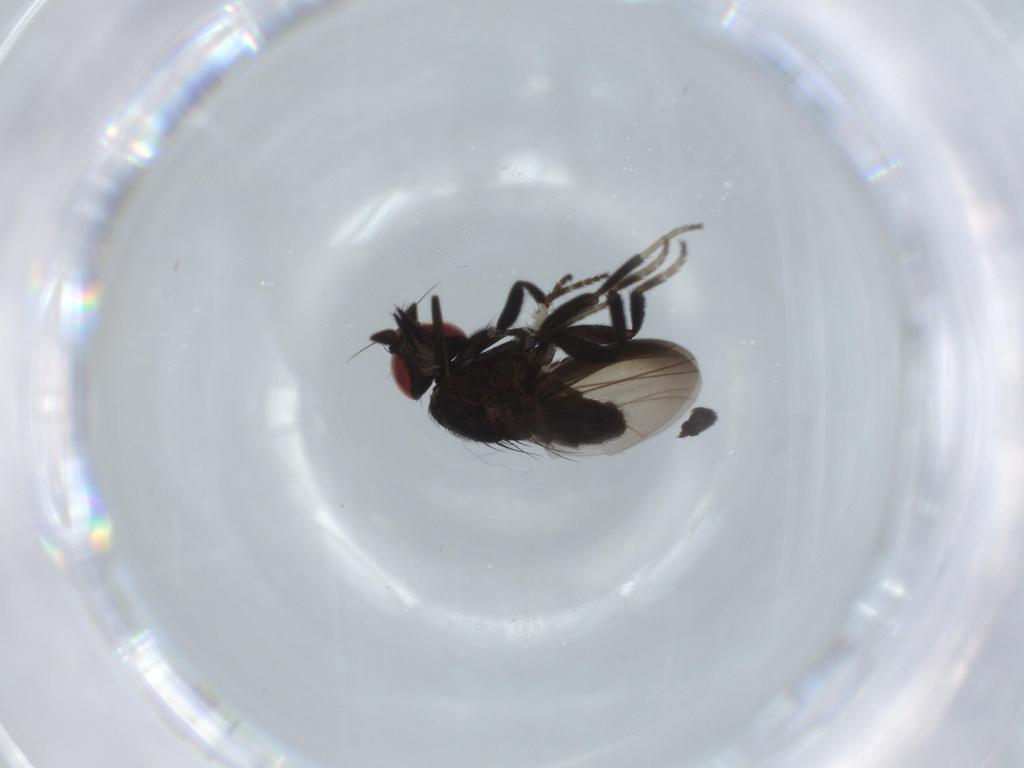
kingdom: Animalia
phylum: Arthropoda
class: Insecta
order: Diptera
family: Milichiidae
